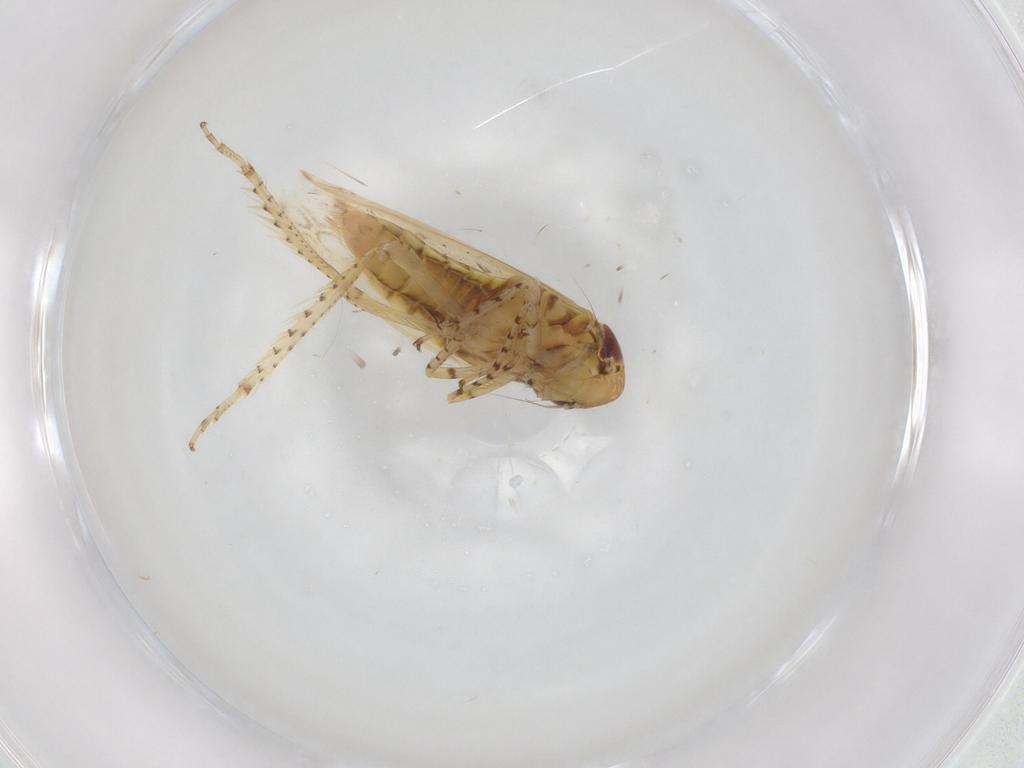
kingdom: Animalia
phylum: Arthropoda
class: Insecta
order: Hemiptera
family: Cicadellidae
